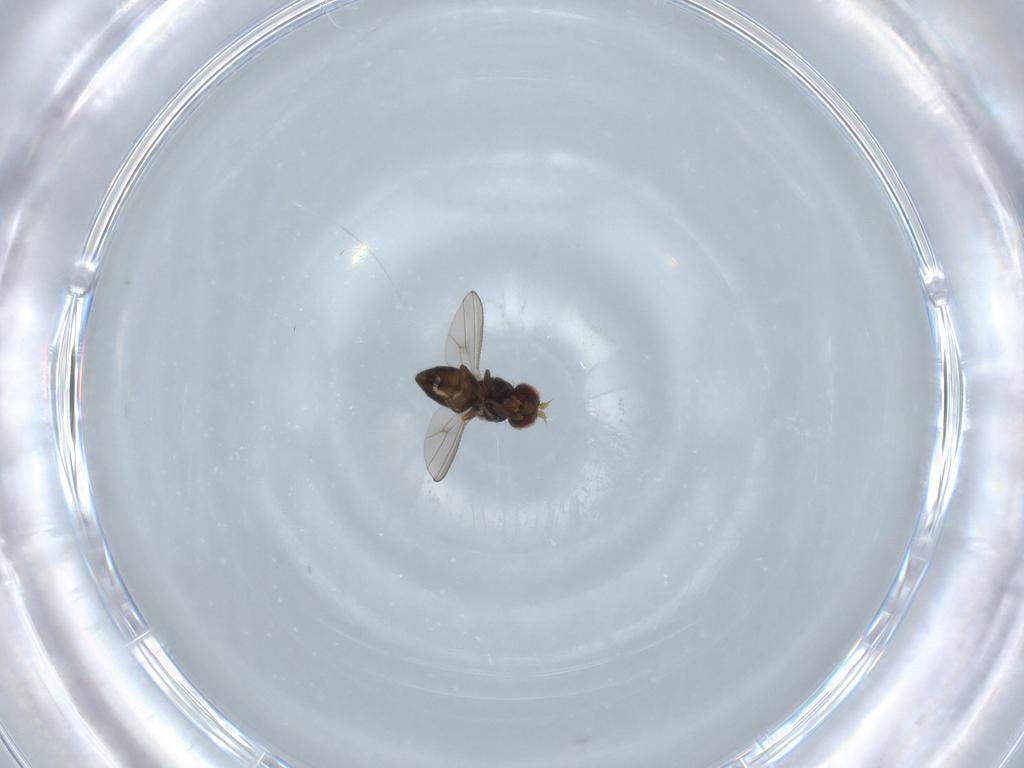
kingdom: Animalia
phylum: Arthropoda
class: Insecta
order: Diptera
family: Ephydridae
